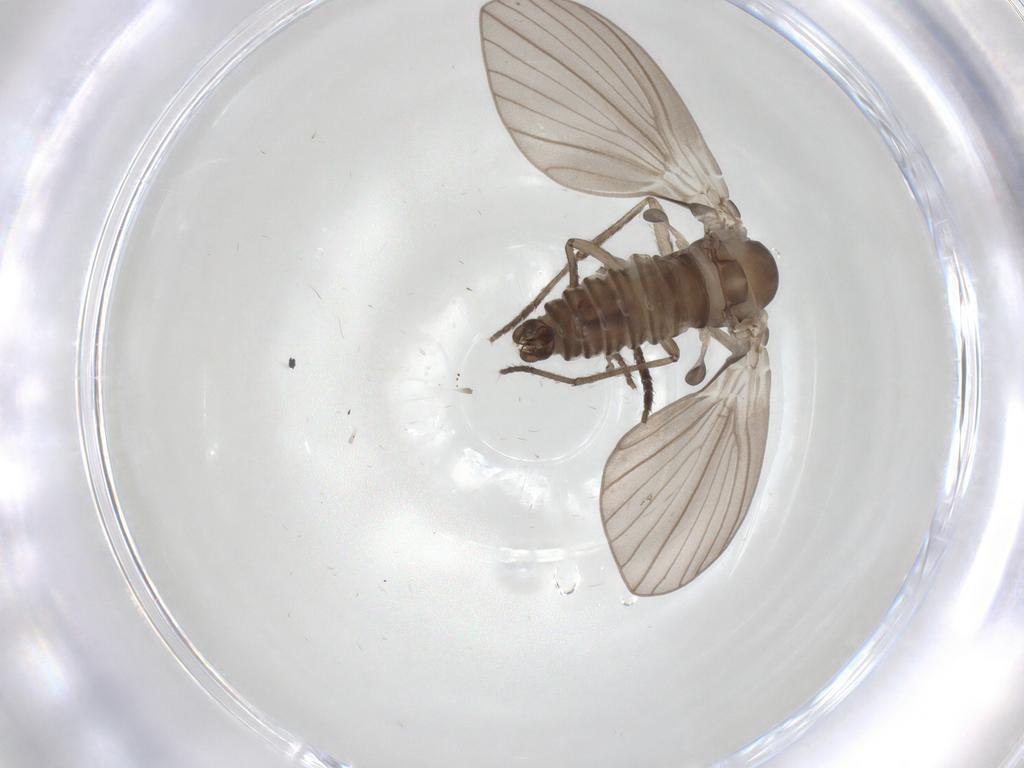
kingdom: Animalia
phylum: Arthropoda
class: Insecta
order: Diptera
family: Psychodidae
